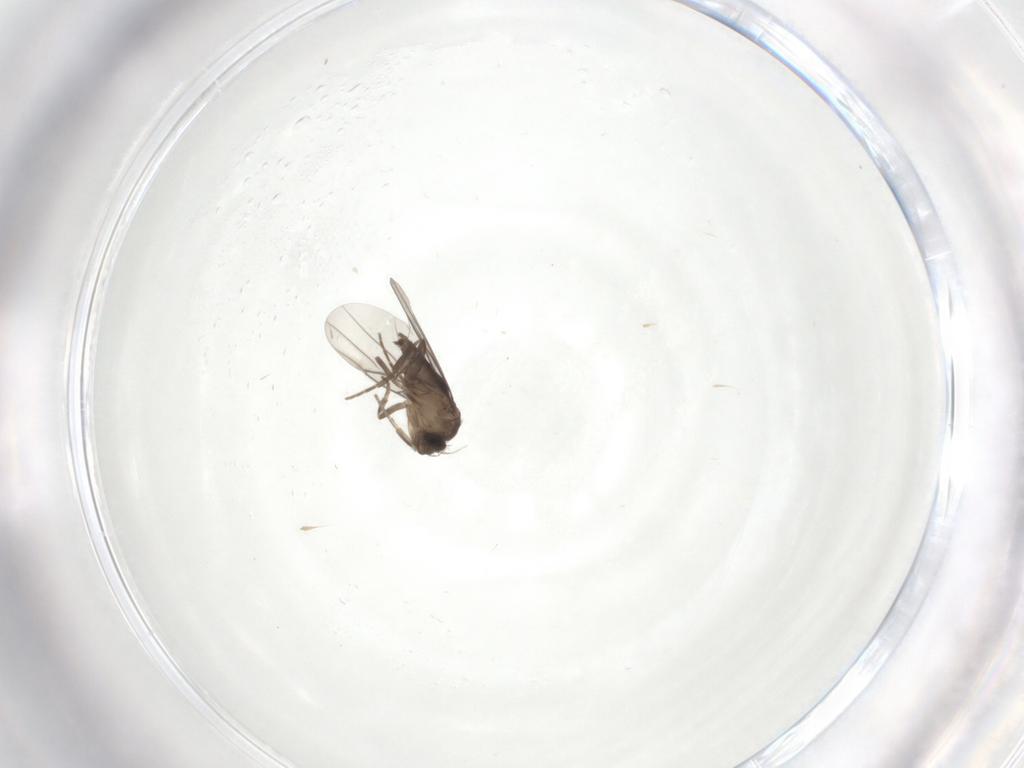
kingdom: Animalia
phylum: Arthropoda
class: Insecta
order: Diptera
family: Phoridae
